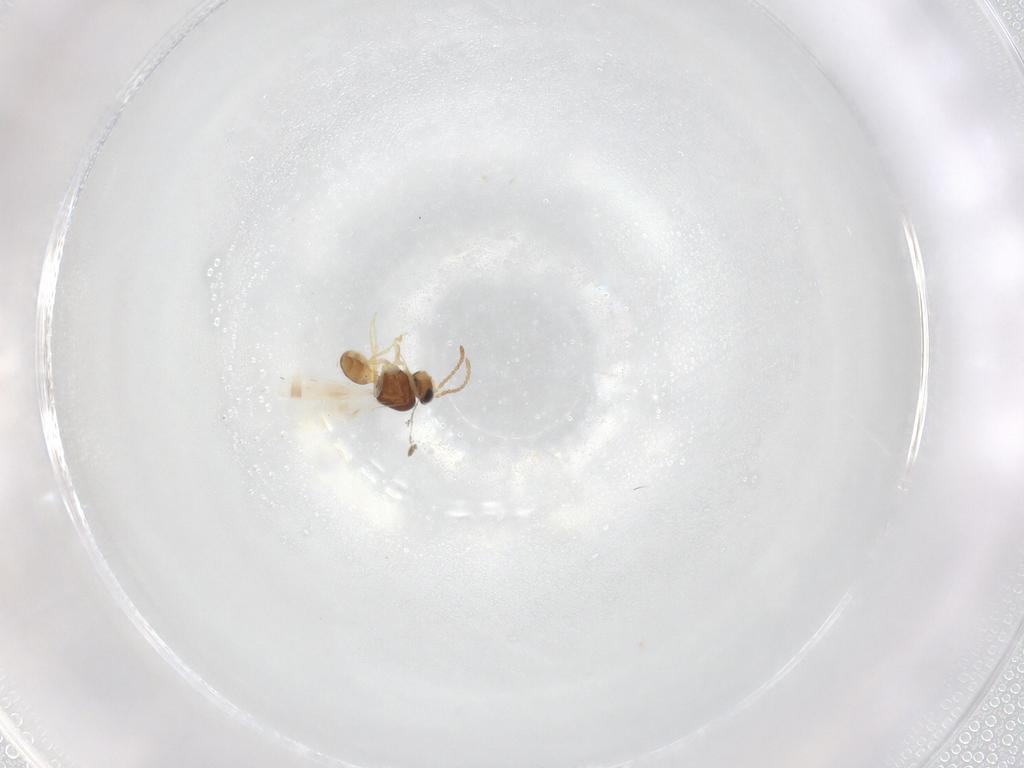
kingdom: Animalia
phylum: Arthropoda
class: Insecta
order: Hymenoptera
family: Scelionidae
